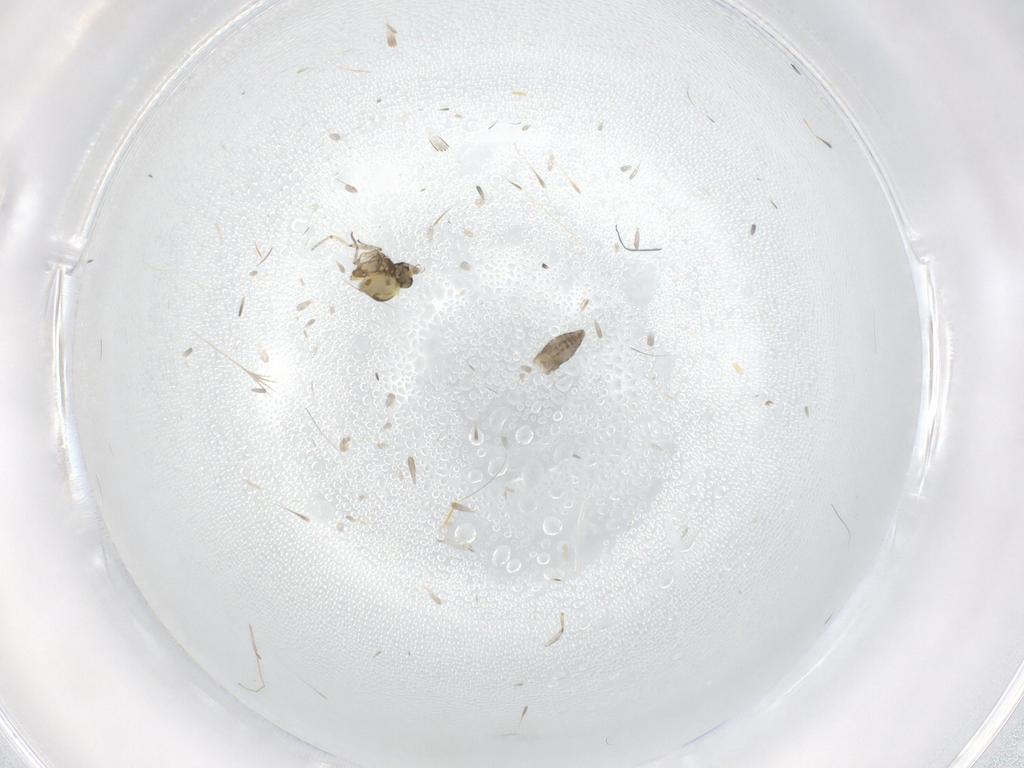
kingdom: Animalia
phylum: Arthropoda
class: Insecta
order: Diptera
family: Ceratopogonidae
